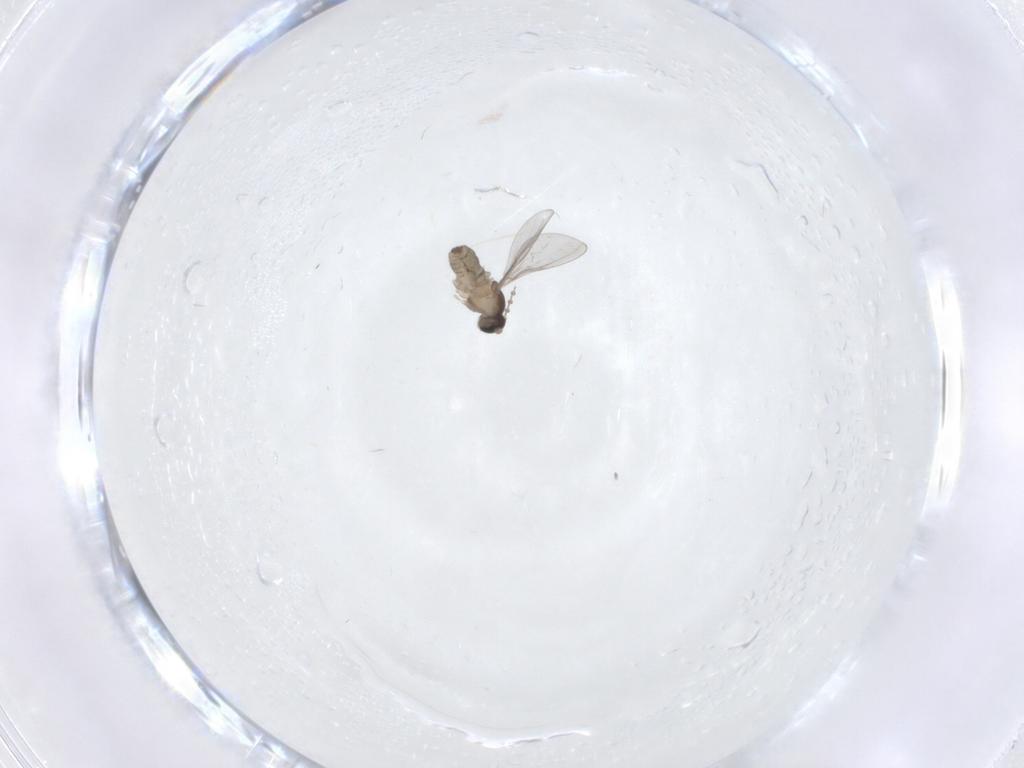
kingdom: Animalia
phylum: Arthropoda
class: Insecta
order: Diptera
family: Cecidomyiidae
